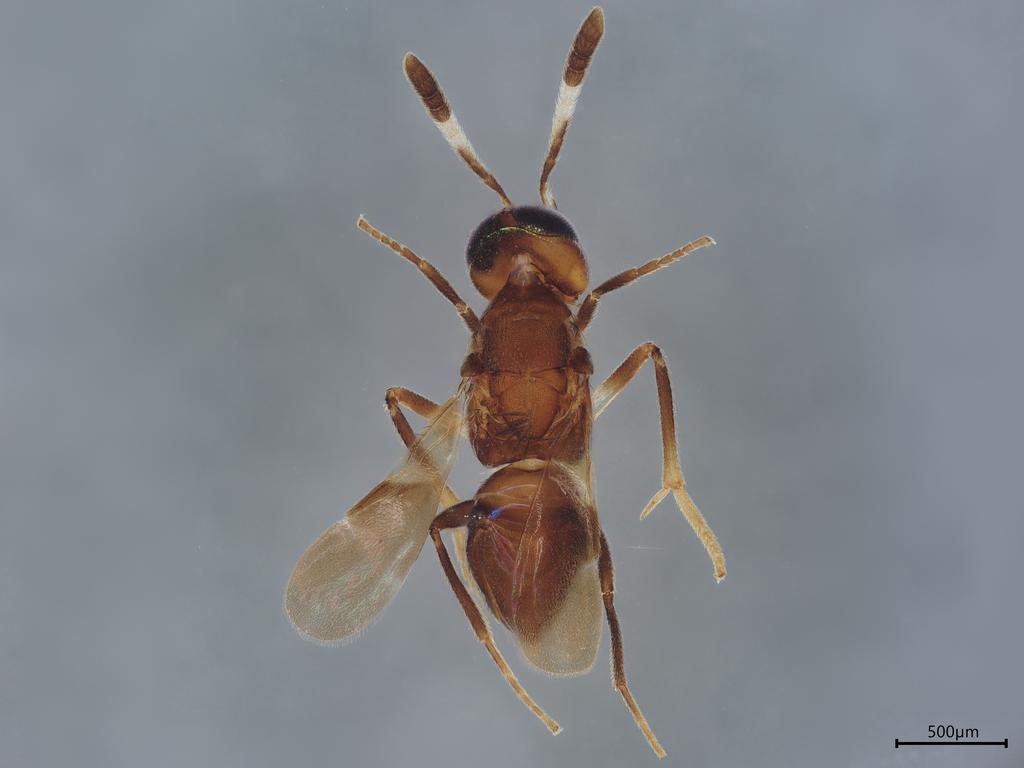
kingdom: Animalia
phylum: Arthropoda
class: Insecta
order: Hymenoptera
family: Encyrtidae
